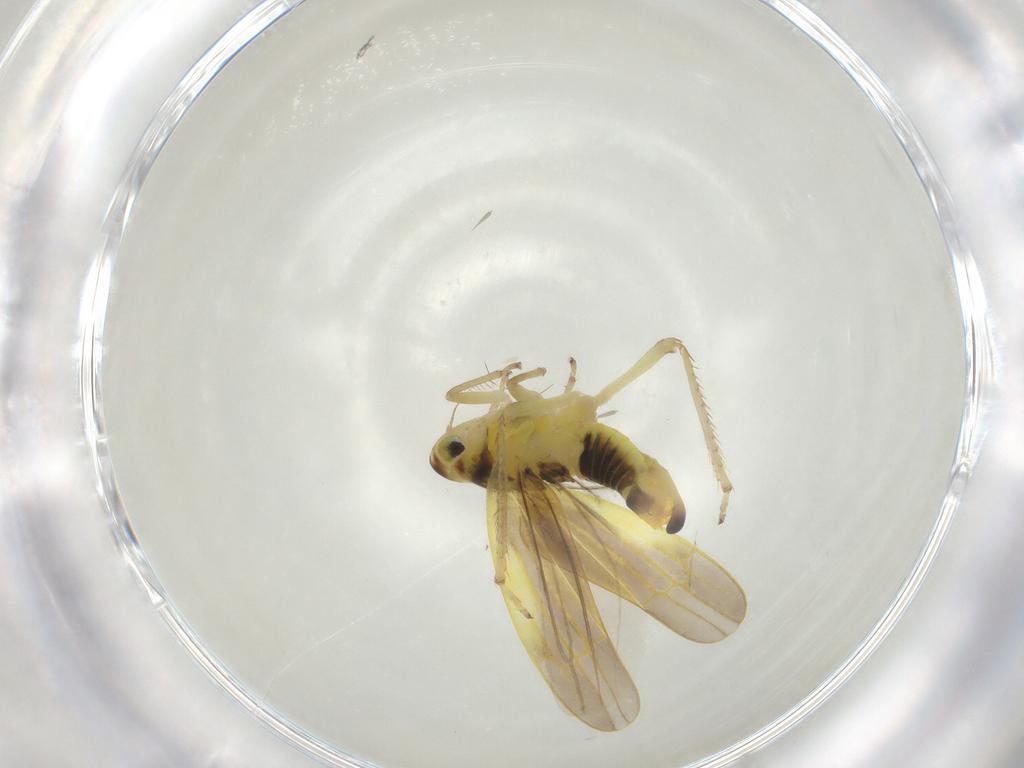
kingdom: Animalia
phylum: Arthropoda
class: Insecta
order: Hemiptera
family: Cicadellidae
